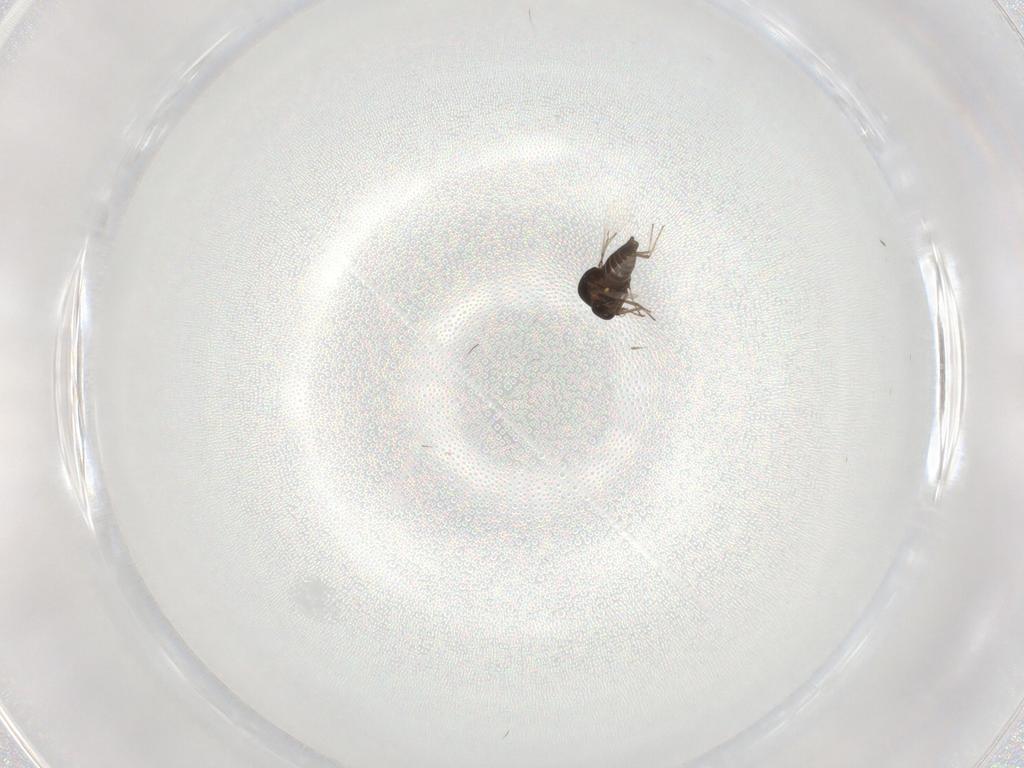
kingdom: Animalia
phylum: Arthropoda
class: Insecta
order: Diptera
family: Ceratopogonidae
